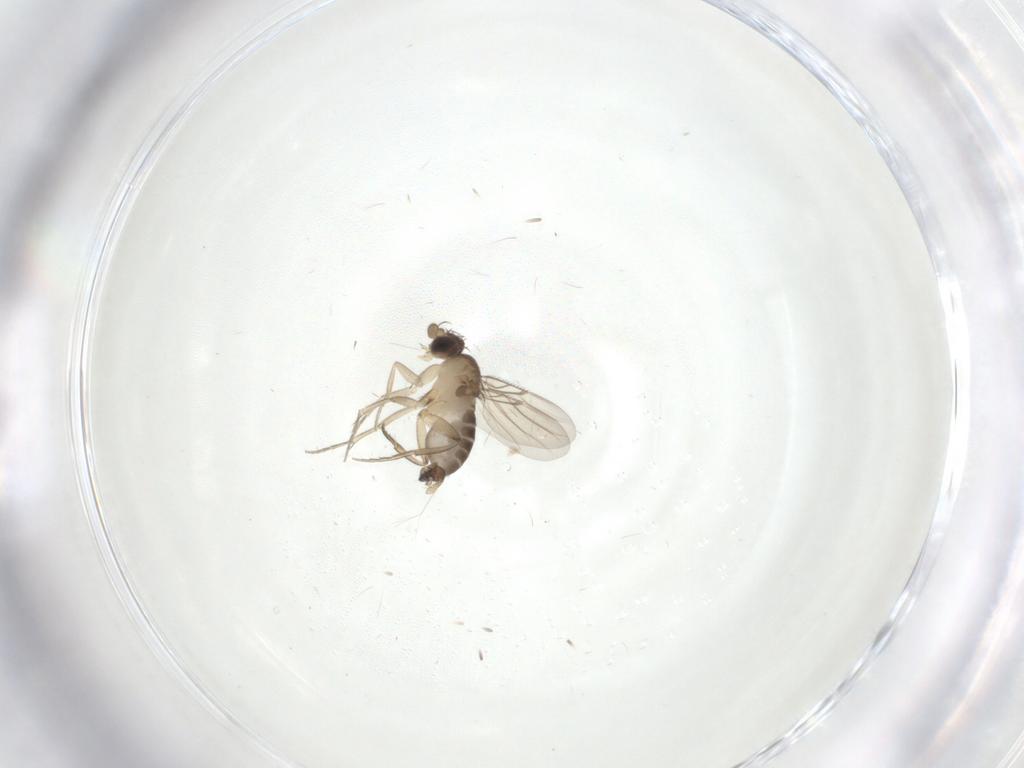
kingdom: Animalia
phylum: Arthropoda
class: Insecta
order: Diptera
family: Phoridae
